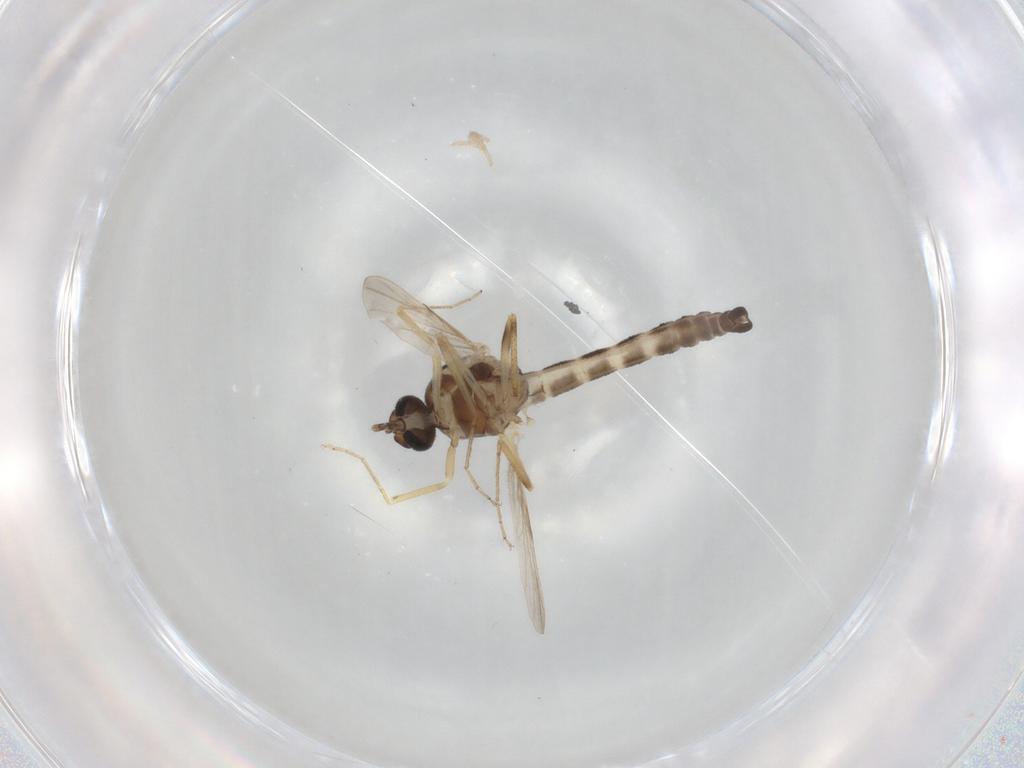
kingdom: Animalia
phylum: Arthropoda
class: Insecta
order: Diptera
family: Ceratopogonidae
